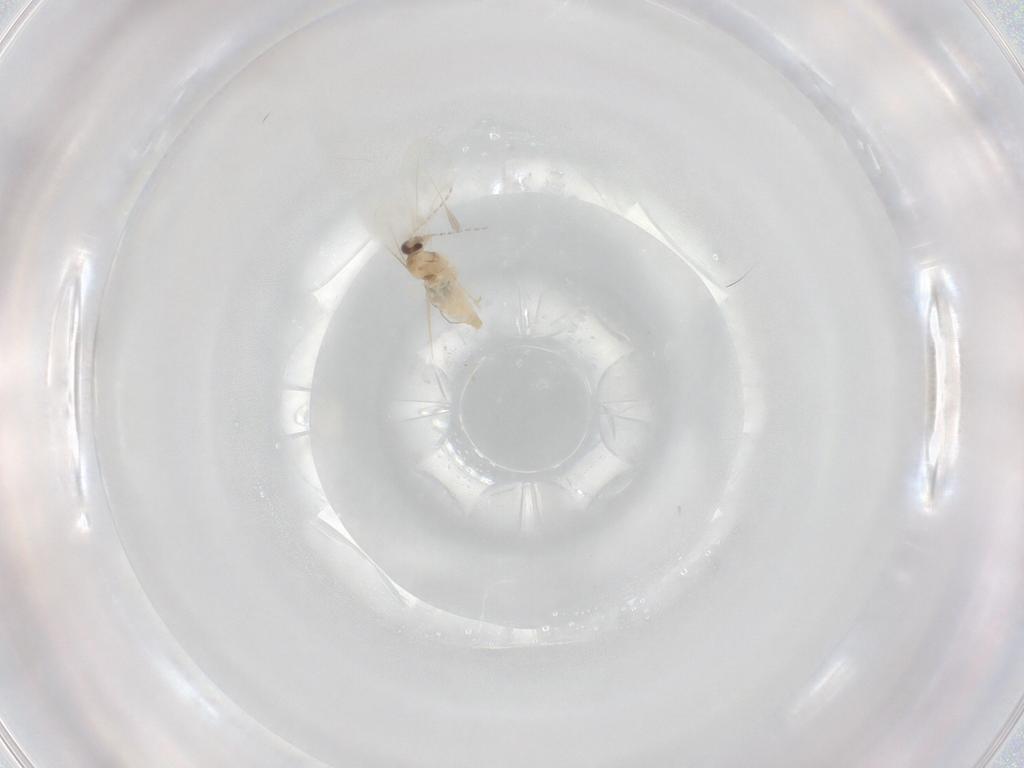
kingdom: Animalia
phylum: Arthropoda
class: Insecta
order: Diptera
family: Cecidomyiidae
